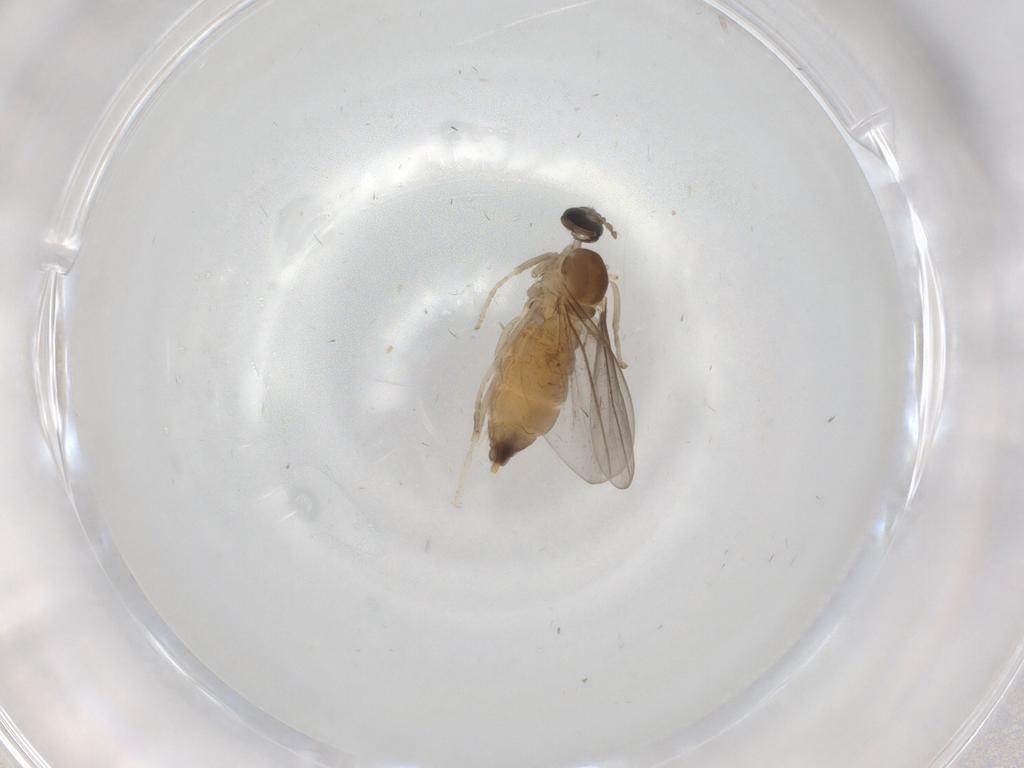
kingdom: Animalia
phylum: Arthropoda
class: Insecta
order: Diptera
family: Cecidomyiidae
